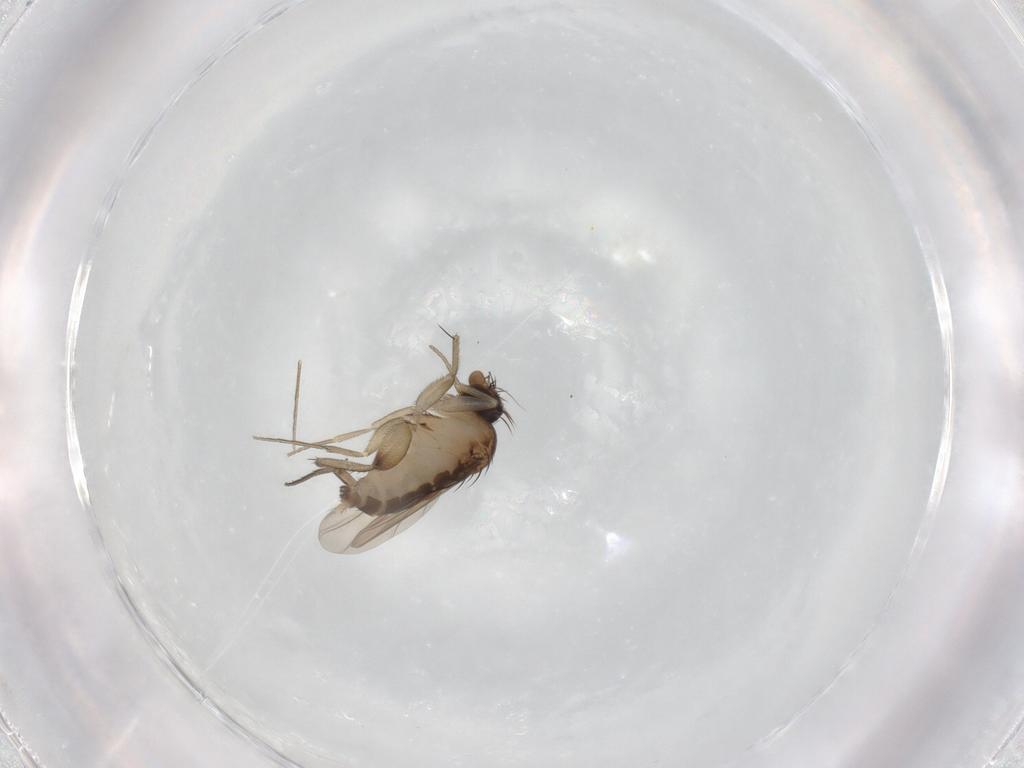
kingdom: Animalia
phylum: Arthropoda
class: Insecta
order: Diptera
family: Phoridae
